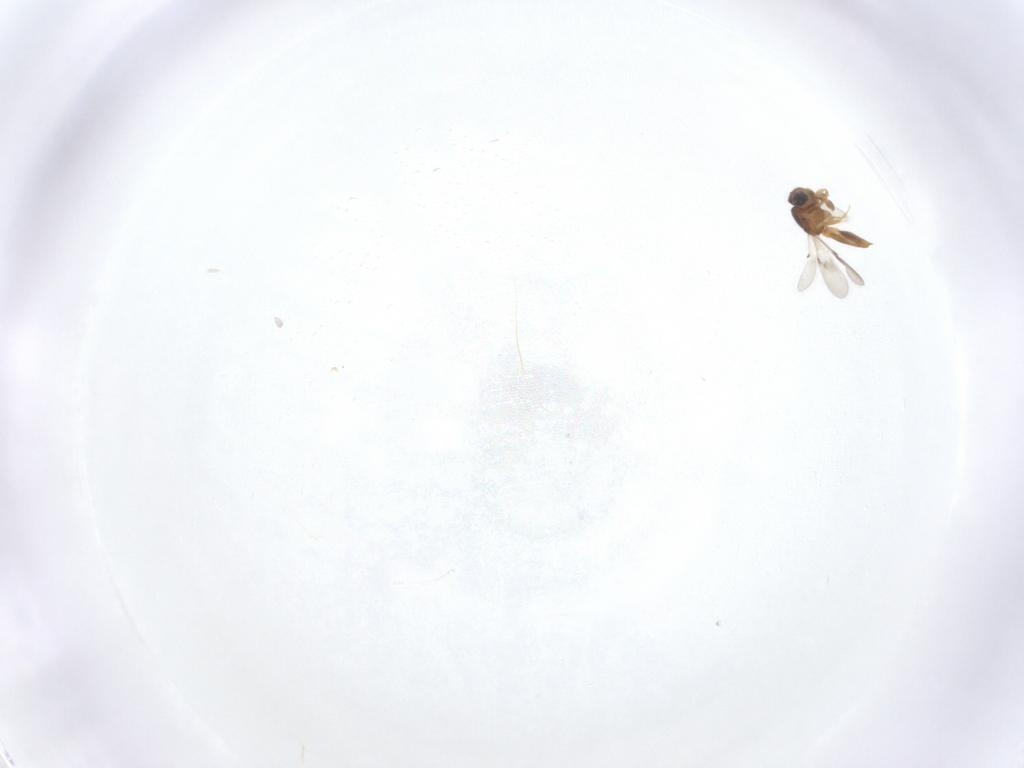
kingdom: Animalia
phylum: Arthropoda
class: Insecta
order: Hymenoptera
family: Scelionidae
